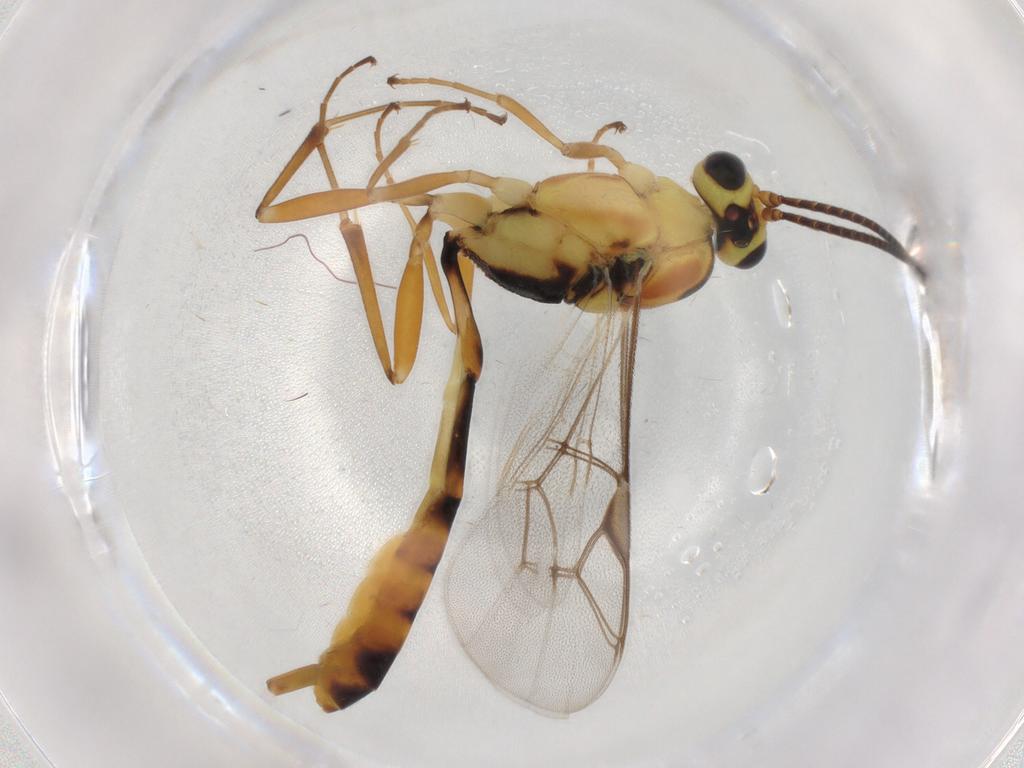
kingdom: Animalia
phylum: Arthropoda
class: Insecta
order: Hymenoptera
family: Ichneumonidae
